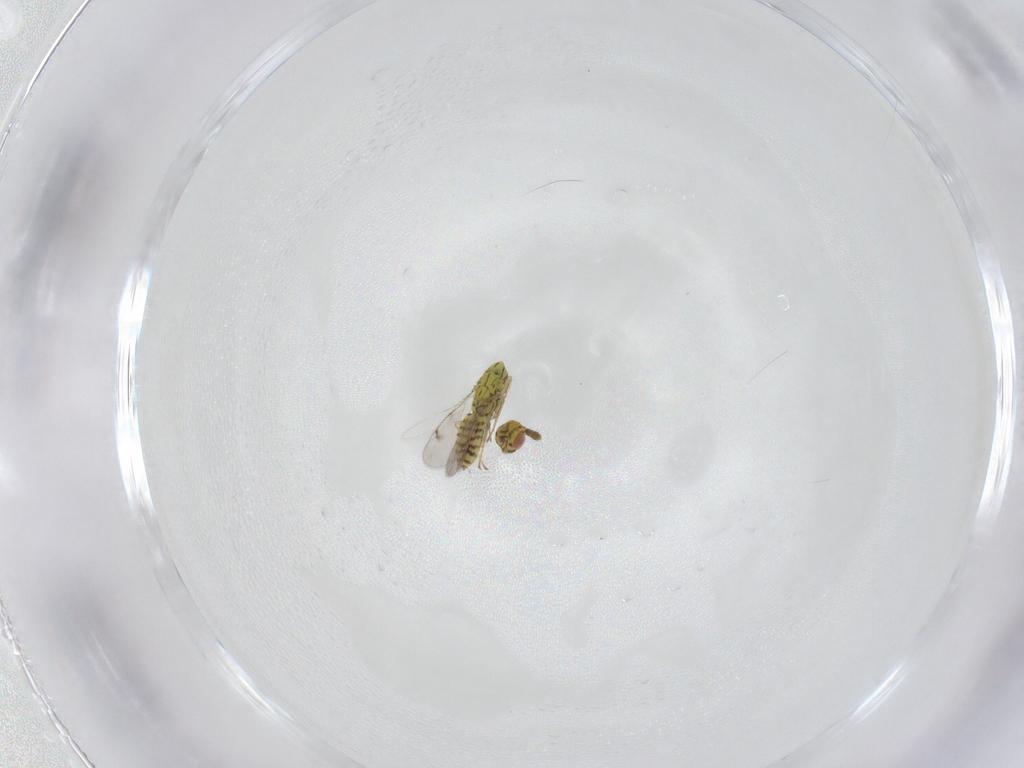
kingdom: Animalia
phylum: Arthropoda
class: Insecta
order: Hymenoptera
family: Eulophidae
